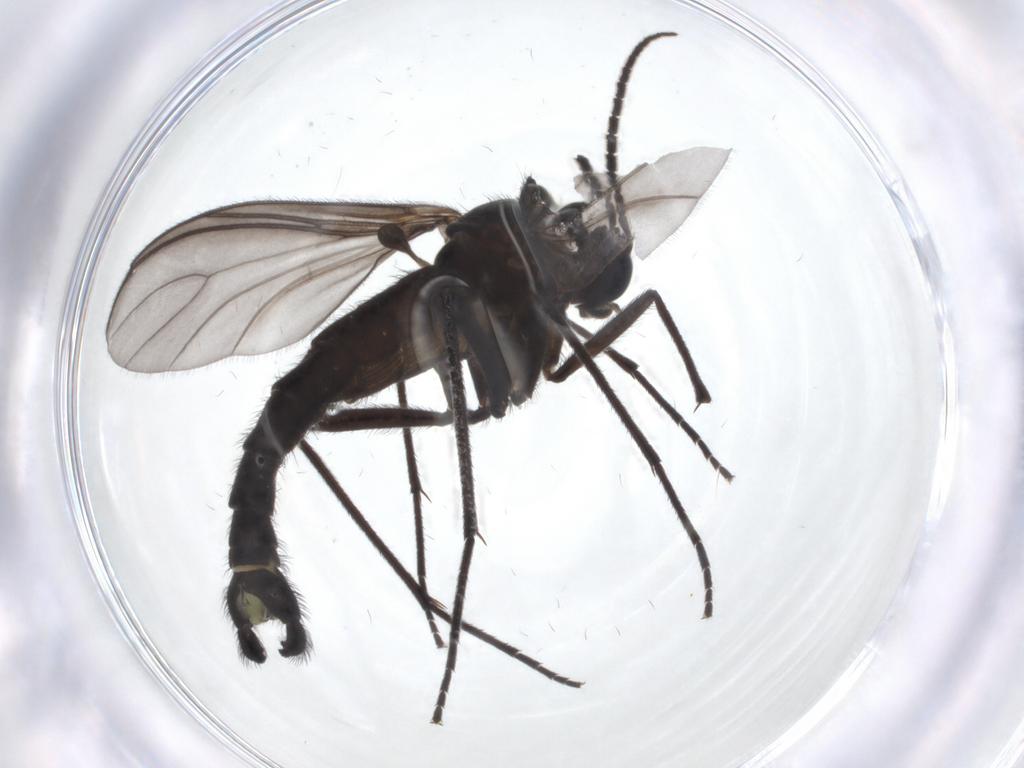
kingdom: Animalia
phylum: Arthropoda
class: Insecta
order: Diptera
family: Sciaridae
